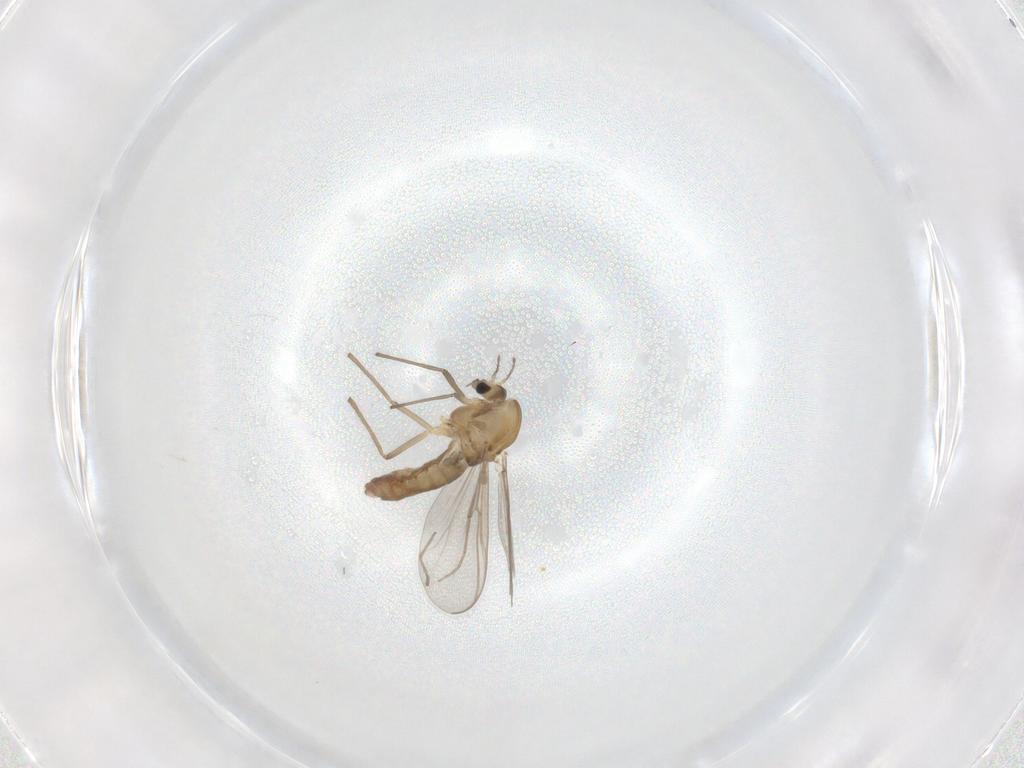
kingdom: Animalia
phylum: Arthropoda
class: Insecta
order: Diptera
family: Chironomidae
